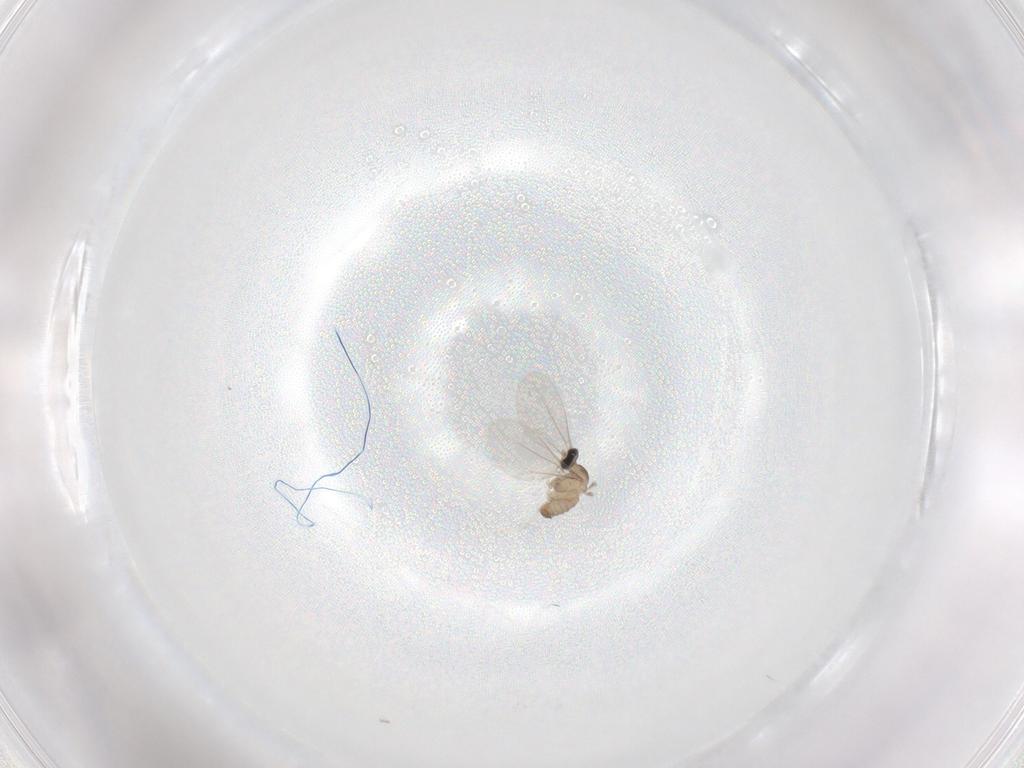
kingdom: Animalia
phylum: Arthropoda
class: Insecta
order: Diptera
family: Cecidomyiidae
